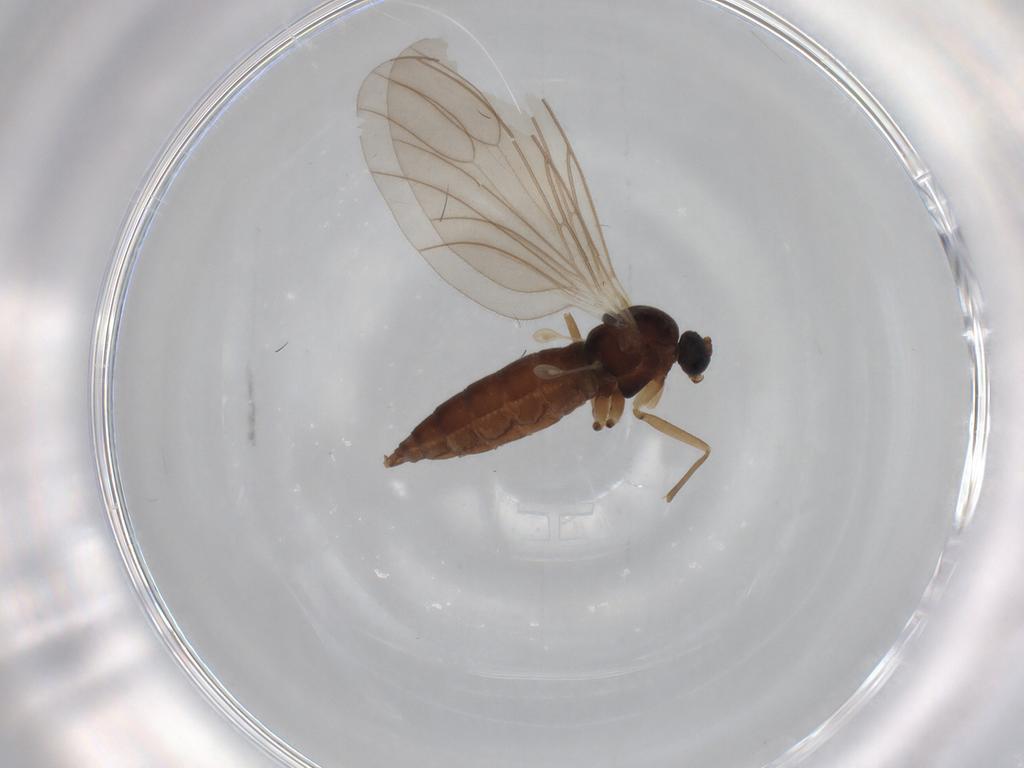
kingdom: Animalia
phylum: Arthropoda
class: Insecta
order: Diptera
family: Sciaridae
